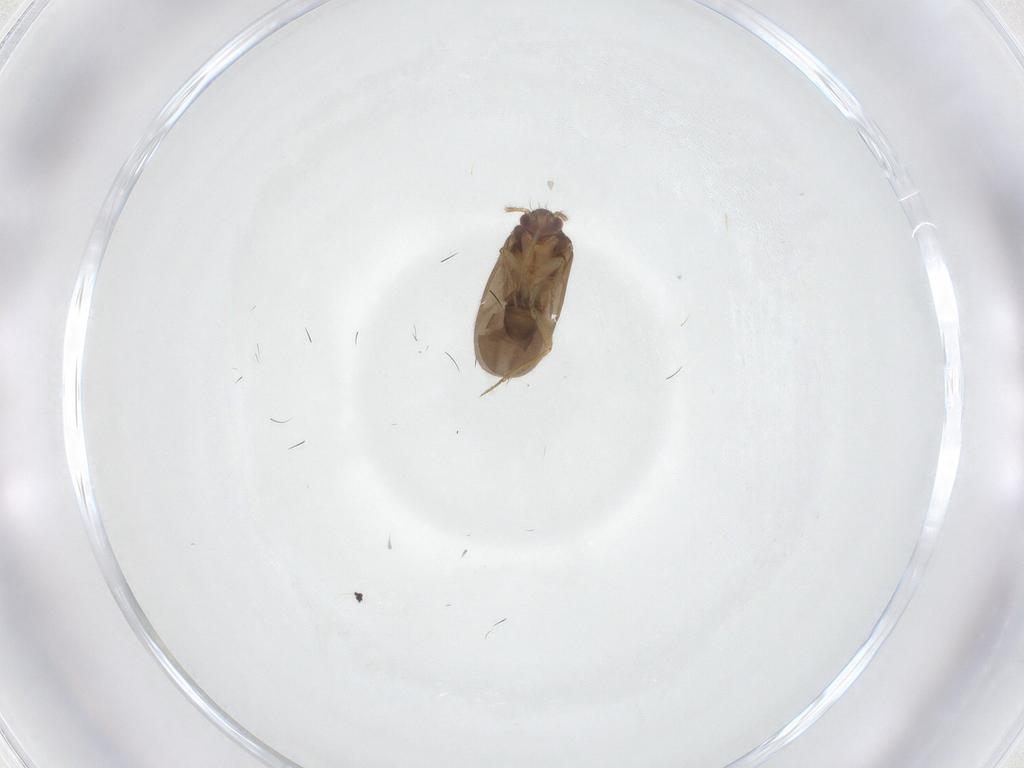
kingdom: Animalia
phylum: Arthropoda
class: Insecta
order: Hemiptera
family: Ceratocombidae
